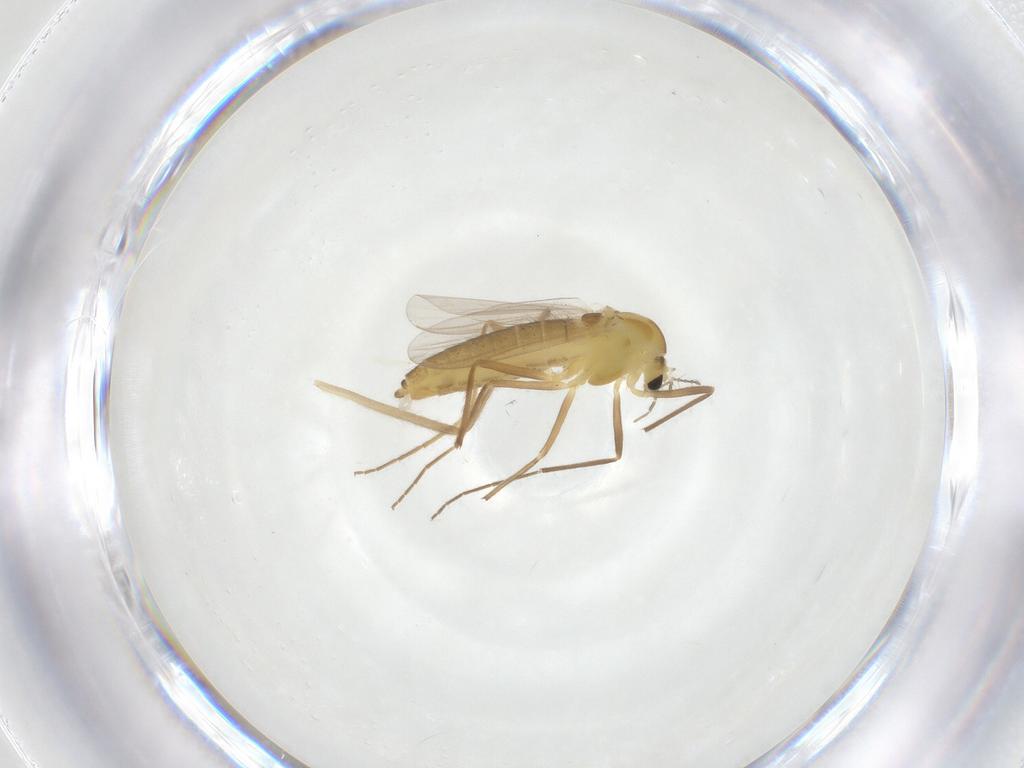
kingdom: Animalia
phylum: Arthropoda
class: Insecta
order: Diptera
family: Chironomidae
